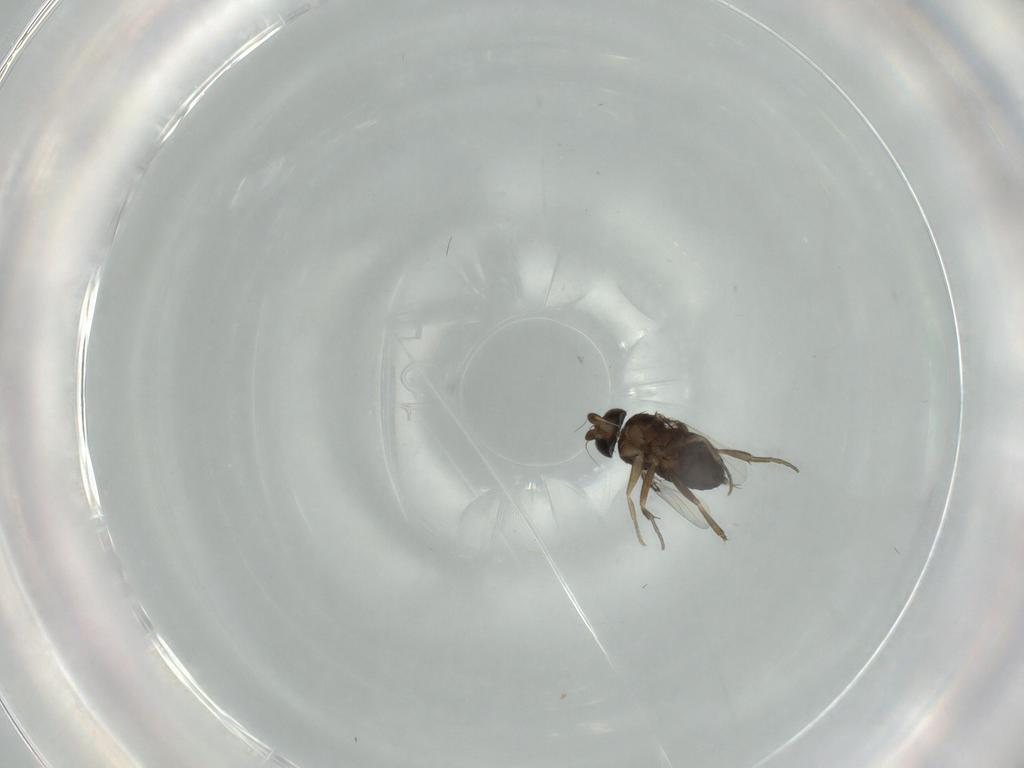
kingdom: Animalia
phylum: Arthropoda
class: Insecta
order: Diptera
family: Phoridae
